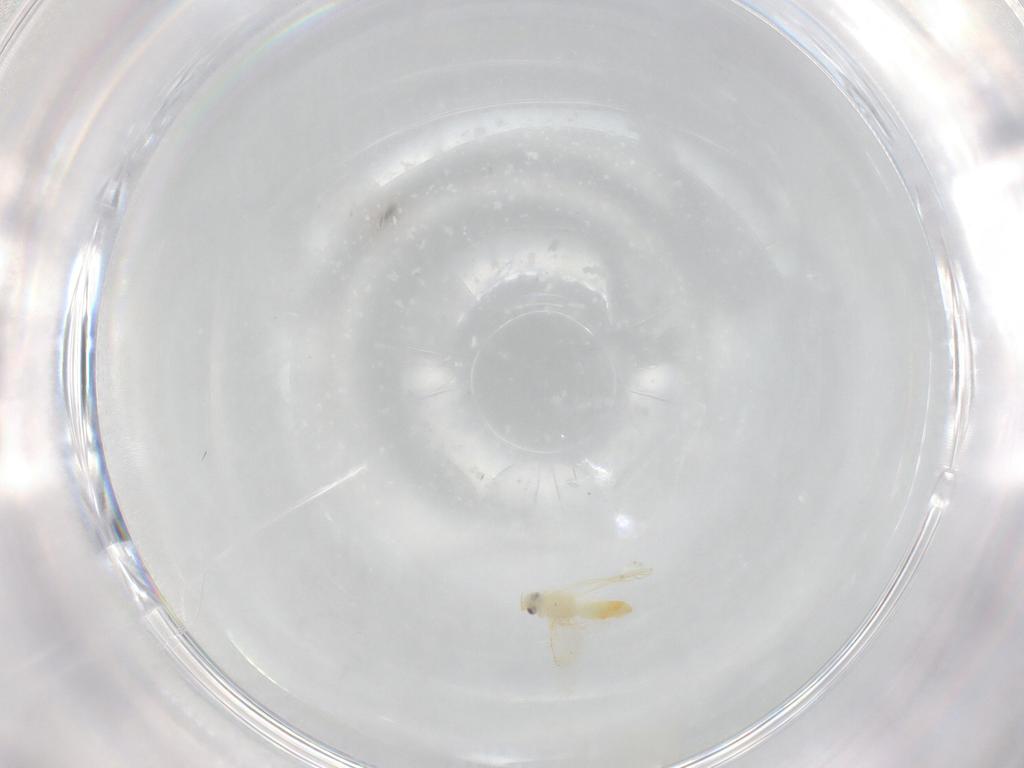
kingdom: Animalia
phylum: Arthropoda
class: Insecta
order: Hemiptera
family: Aleyrodidae
